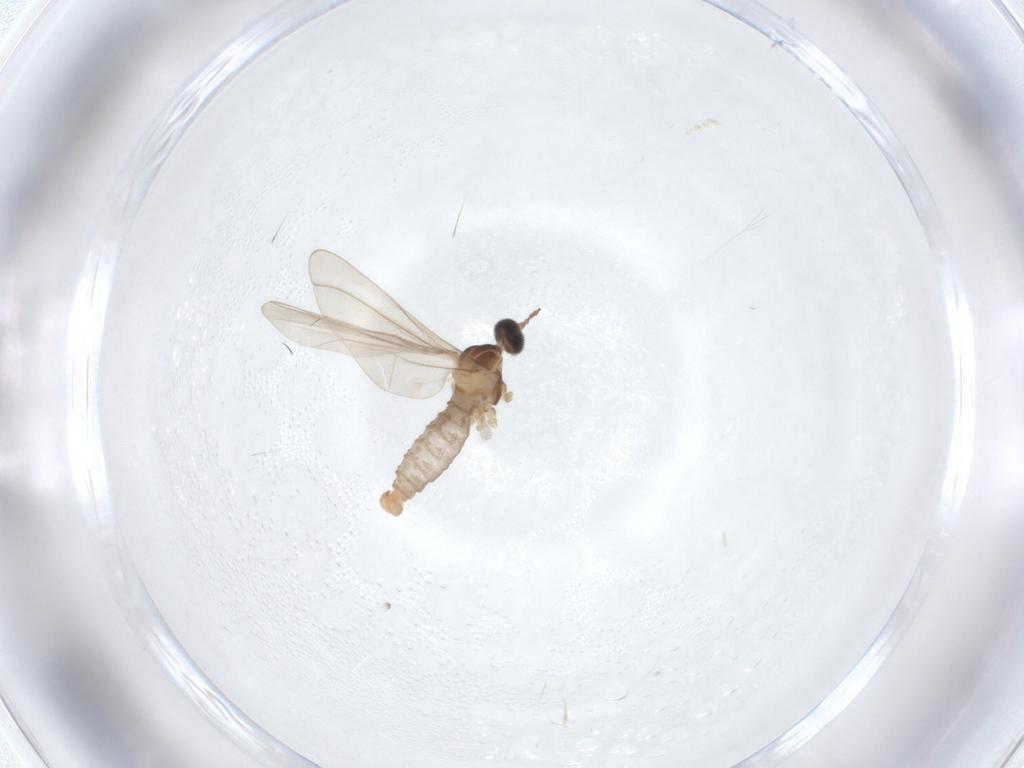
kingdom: Animalia
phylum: Arthropoda
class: Insecta
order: Diptera
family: Cecidomyiidae
